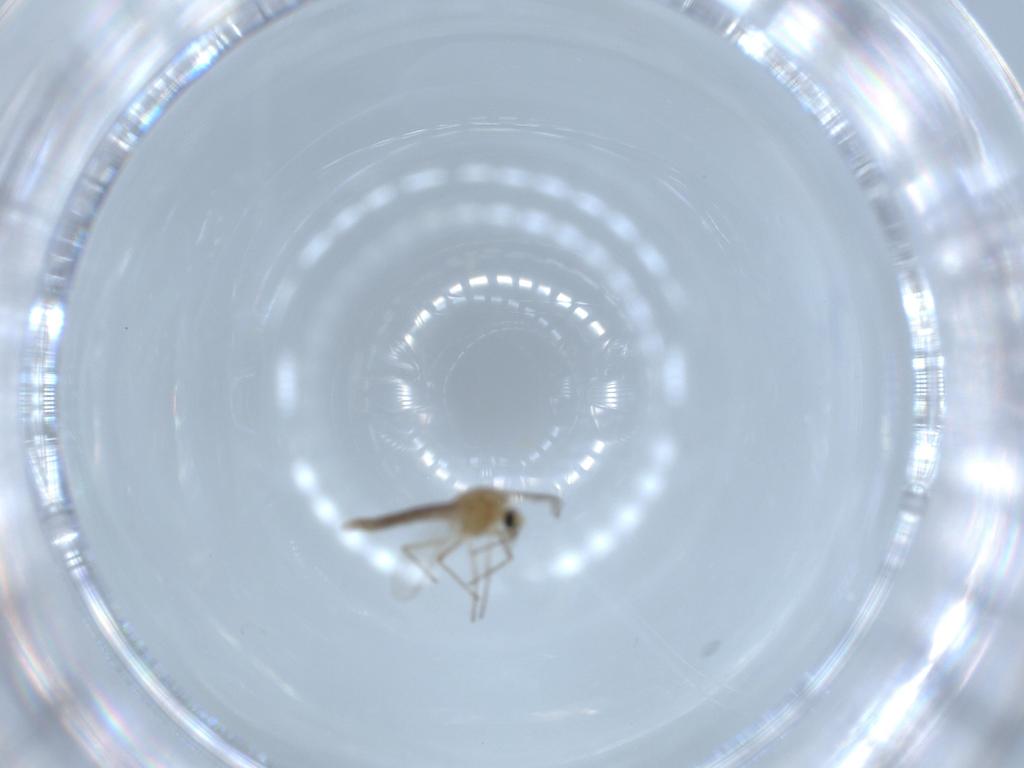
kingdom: Animalia
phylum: Arthropoda
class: Insecta
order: Diptera
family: Chironomidae
